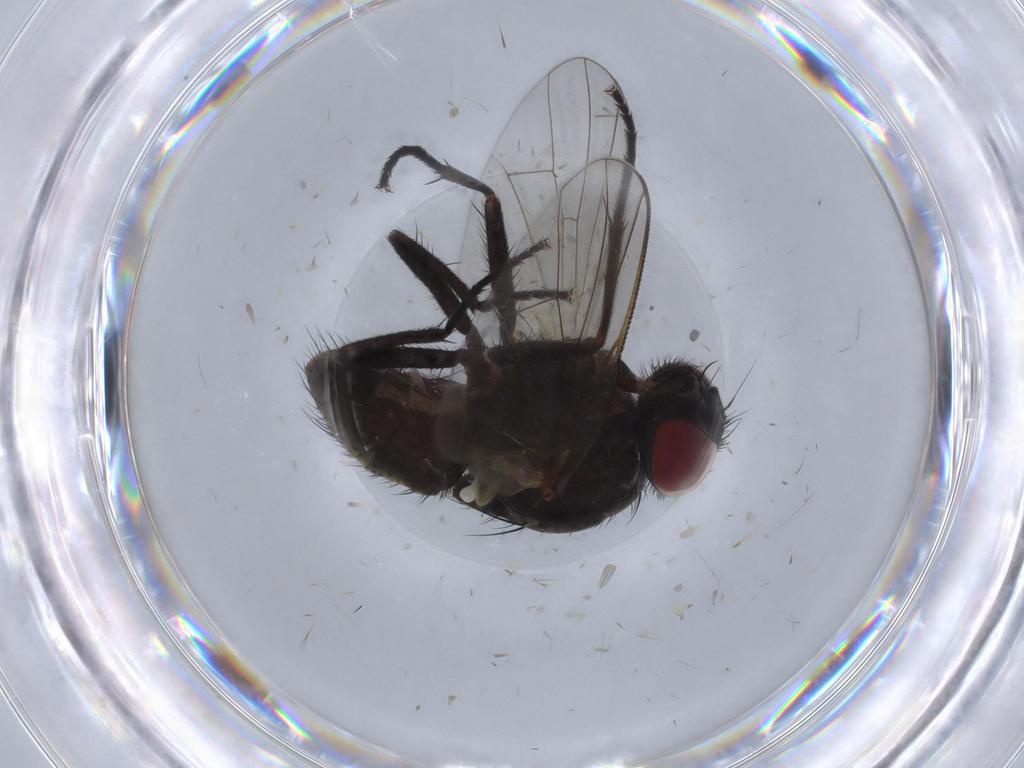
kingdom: Animalia
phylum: Arthropoda
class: Insecta
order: Diptera
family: Muscidae
